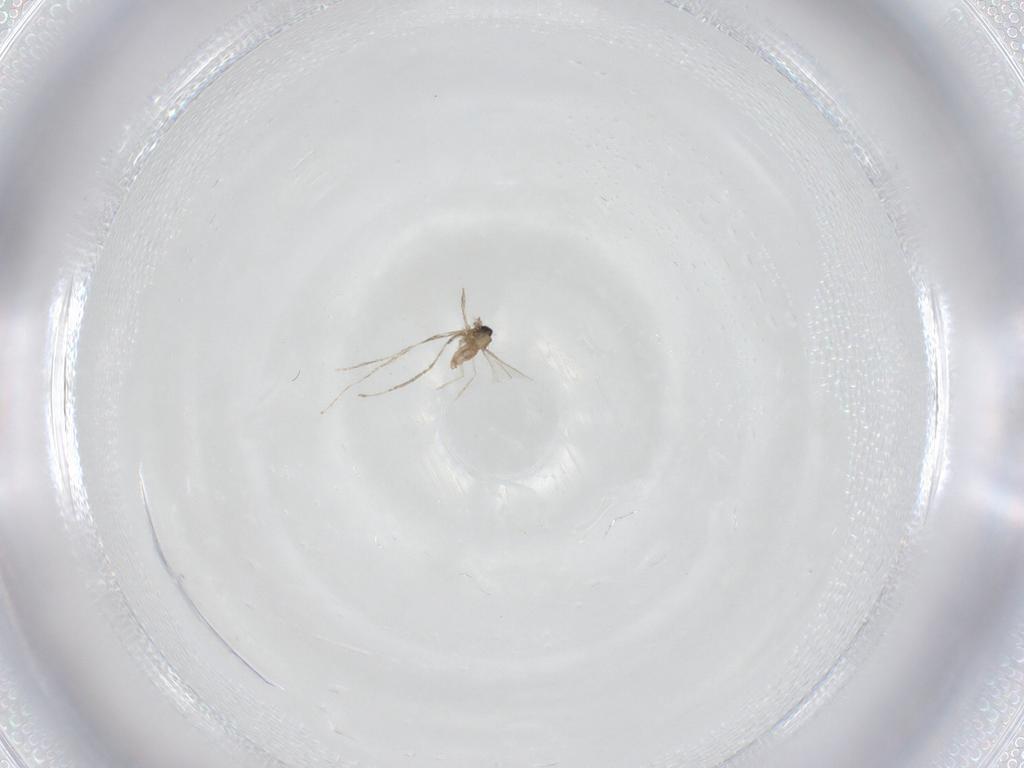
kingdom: Animalia
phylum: Arthropoda
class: Insecta
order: Diptera
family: Cecidomyiidae
